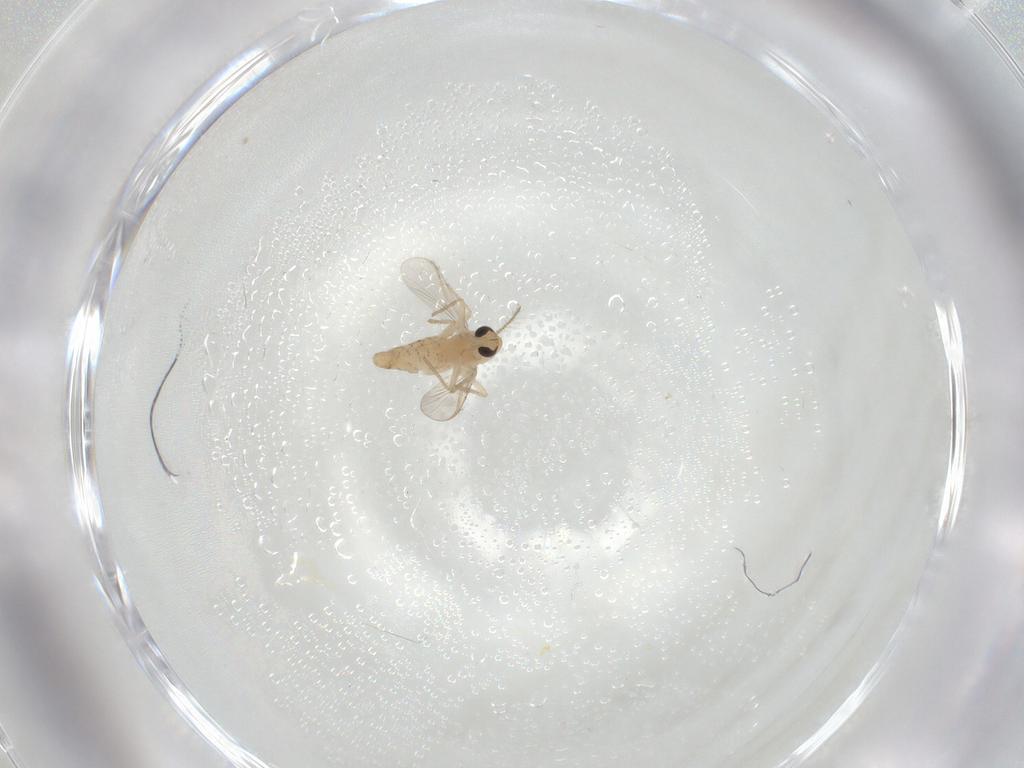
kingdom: Animalia
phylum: Arthropoda
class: Insecta
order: Diptera
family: Chironomidae
